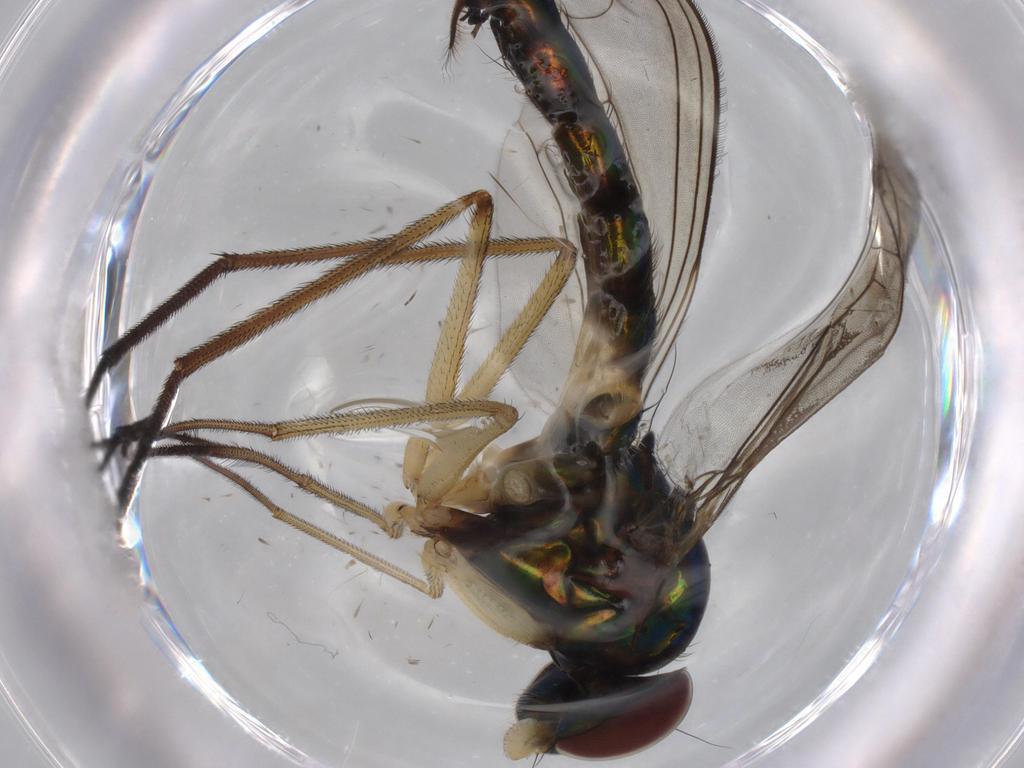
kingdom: Animalia
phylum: Arthropoda
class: Insecta
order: Diptera
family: Dolichopodidae
